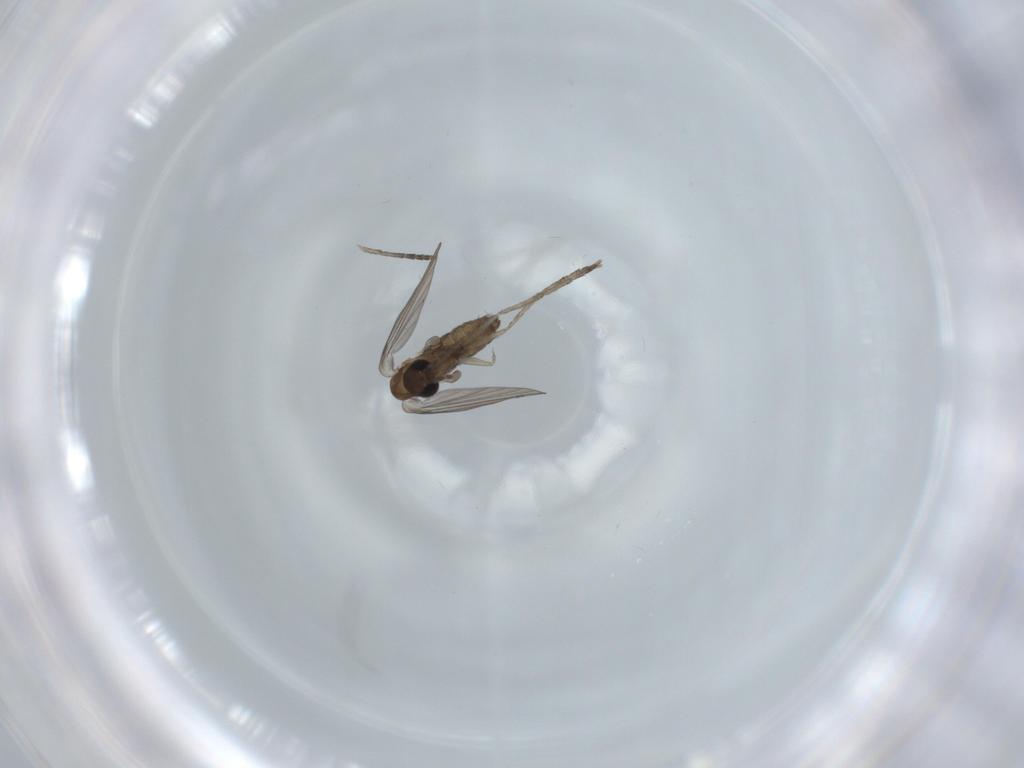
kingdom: Animalia
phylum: Arthropoda
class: Insecta
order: Diptera
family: Psychodidae
